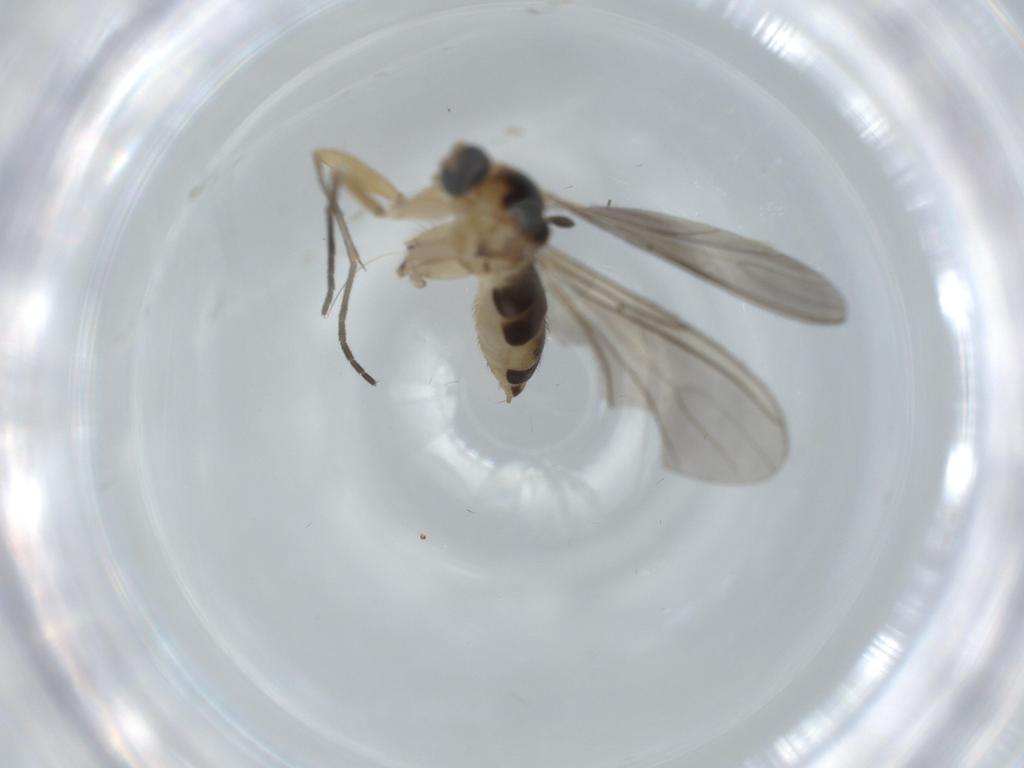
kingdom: Animalia
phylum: Arthropoda
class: Insecta
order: Diptera
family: Sciaridae
